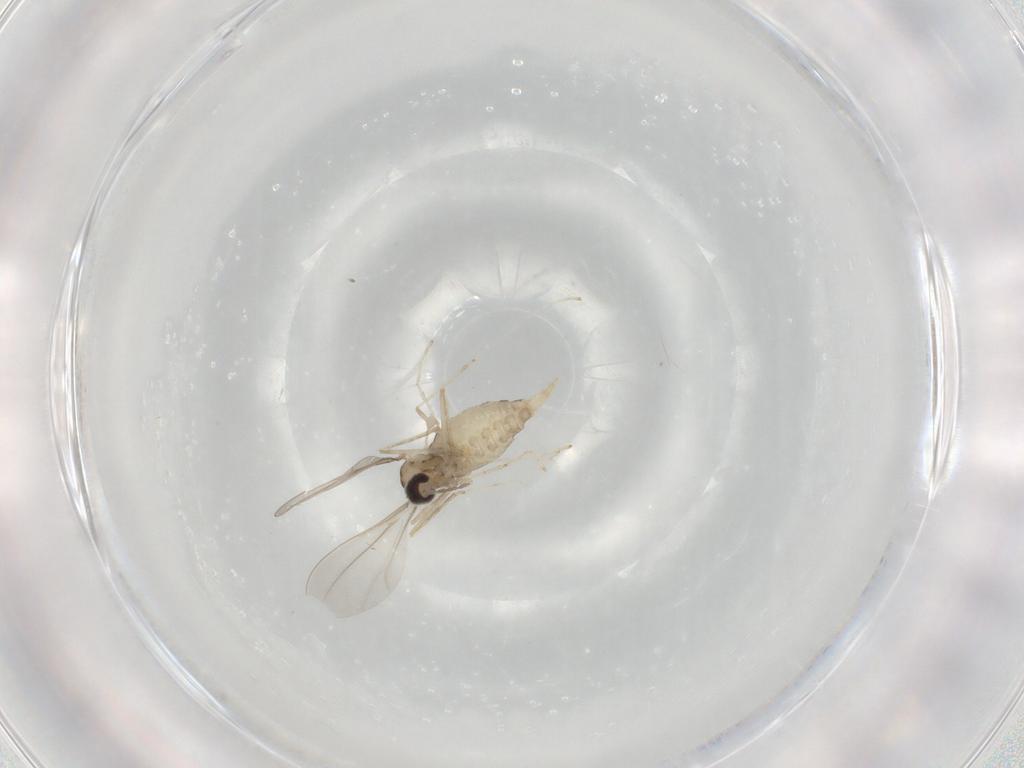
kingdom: Animalia
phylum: Arthropoda
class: Insecta
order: Diptera
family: Cecidomyiidae
